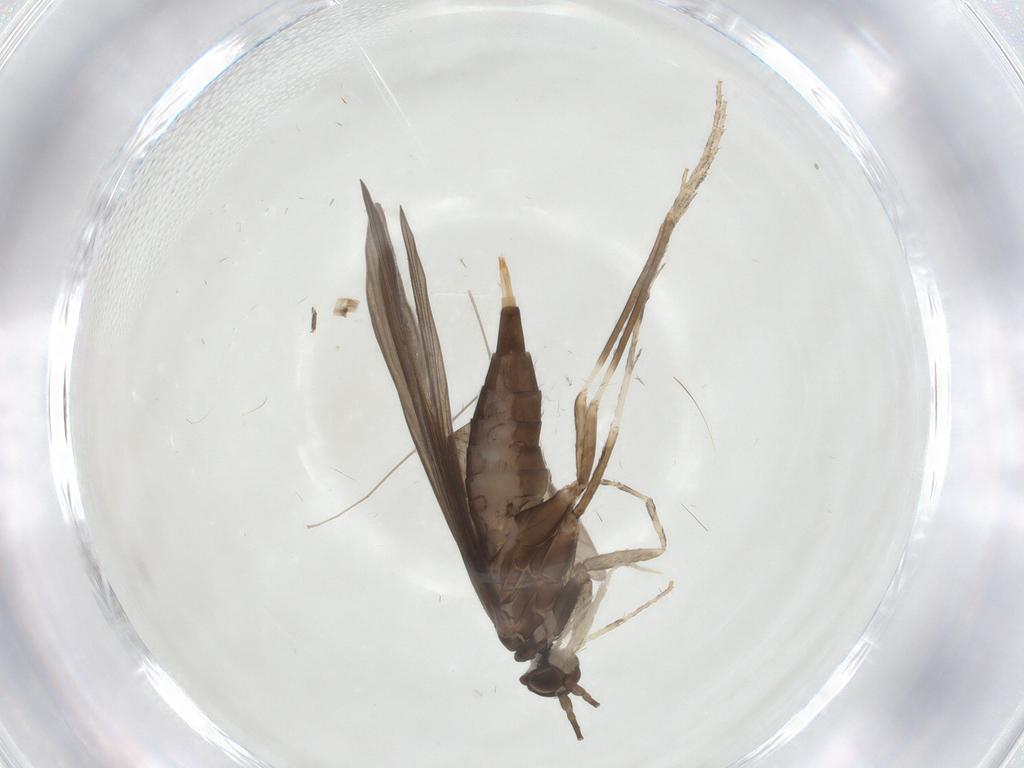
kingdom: Animalia
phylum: Arthropoda
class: Insecta
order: Trichoptera
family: Xiphocentronidae
